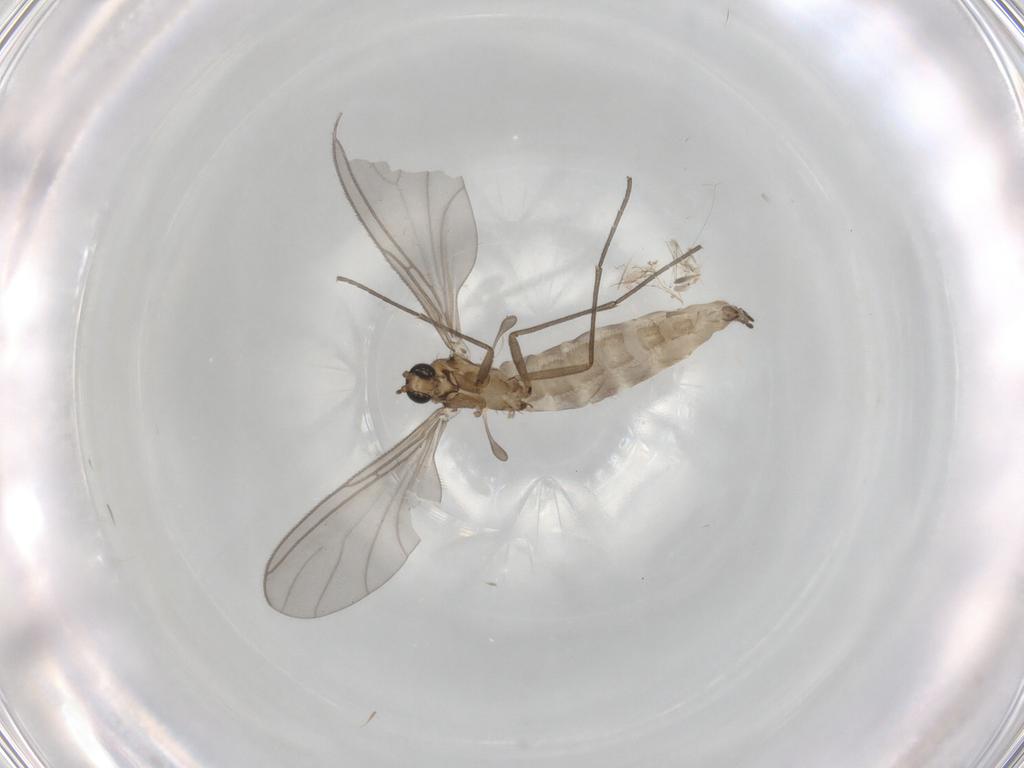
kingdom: Animalia
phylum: Arthropoda
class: Insecta
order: Diptera
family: Sciaridae
